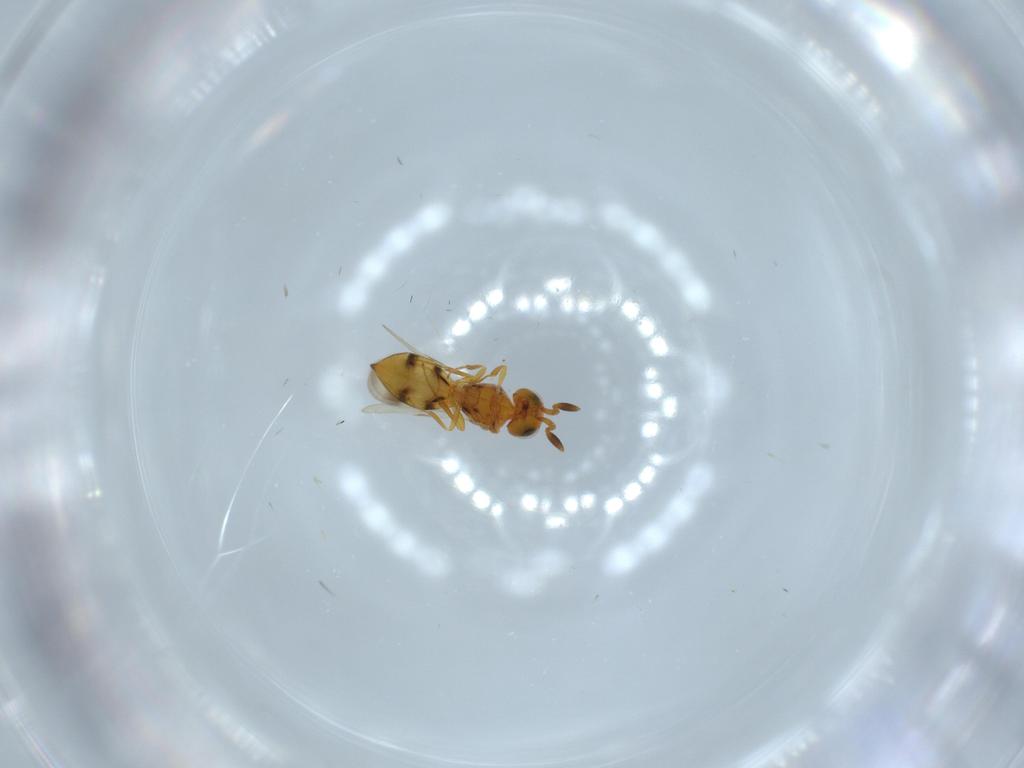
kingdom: Animalia
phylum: Arthropoda
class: Insecta
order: Hymenoptera
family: Scelionidae
